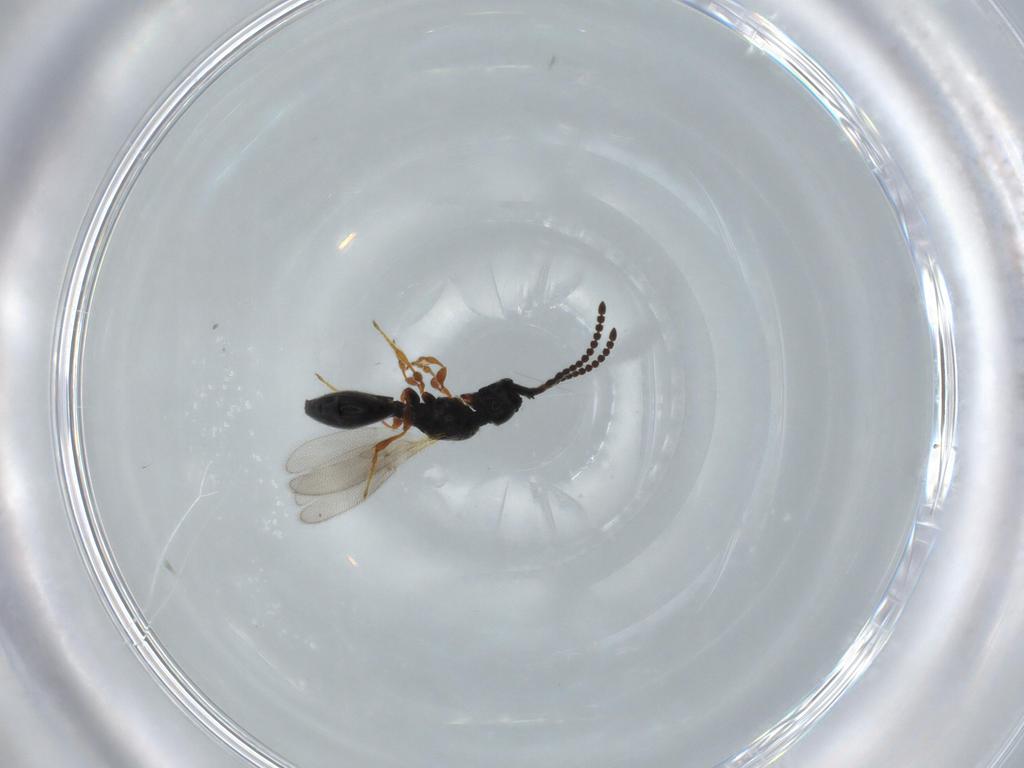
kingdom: Animalia
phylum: Arthropoda
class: Insecta
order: Hymenoptera
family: Diapriidae
